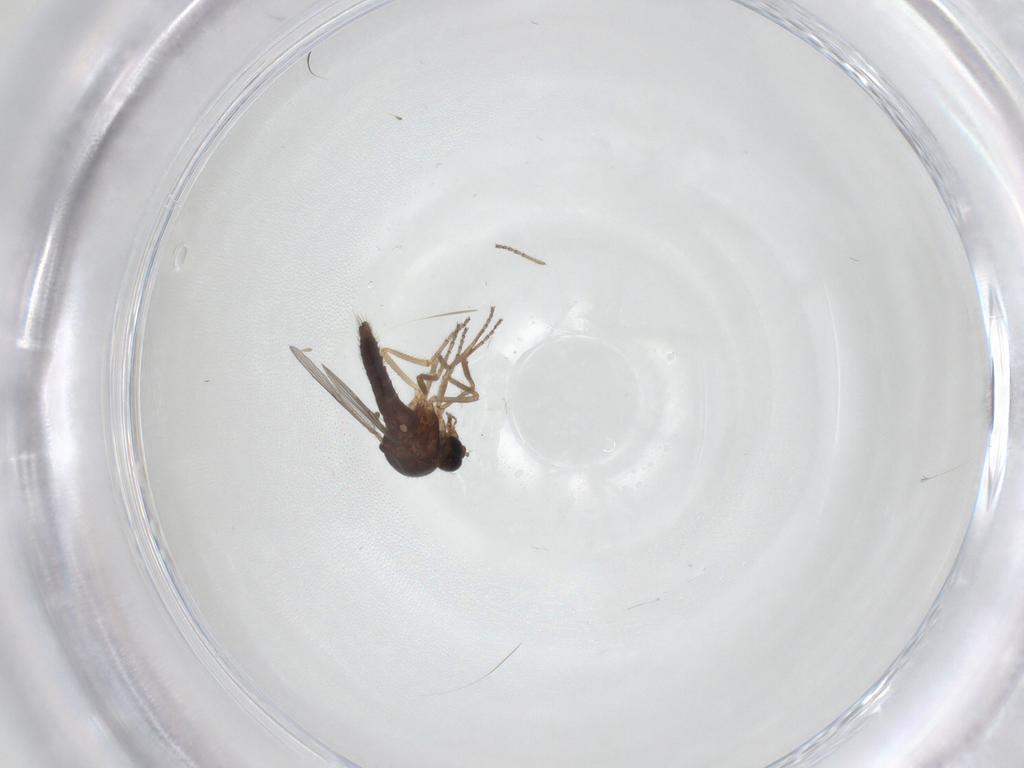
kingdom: Animalia
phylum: Arthropoda
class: Insecta
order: Diptera
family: Ceratopogonidae
